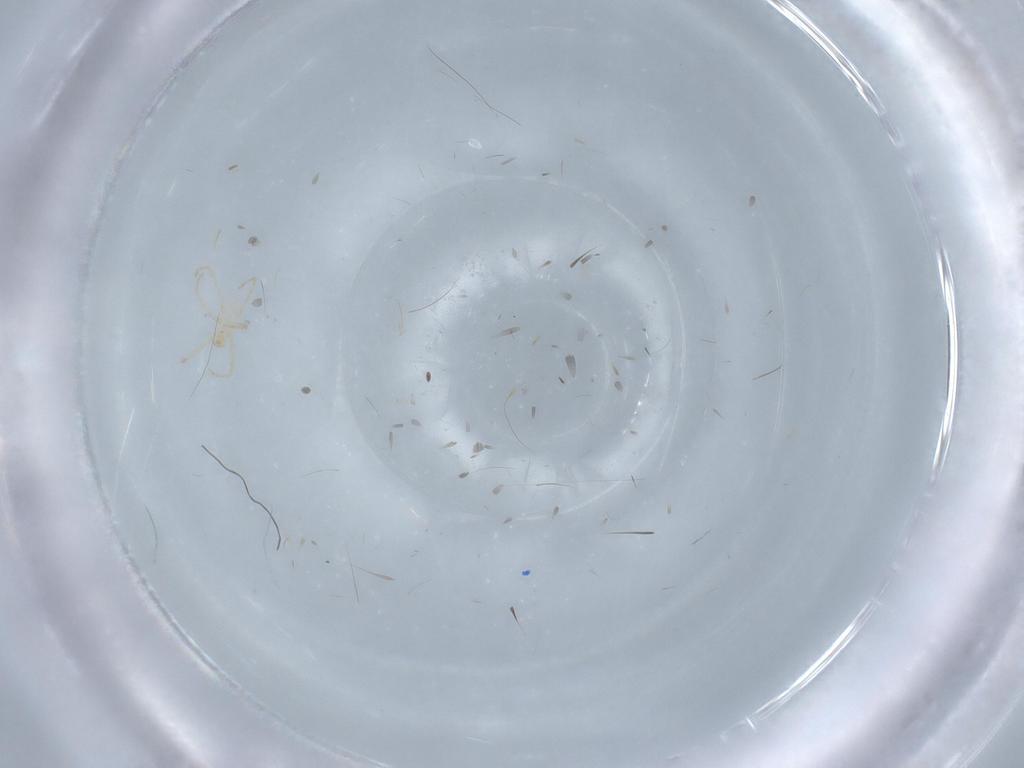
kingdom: Animalia
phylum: Arthropoda
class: Arachnida
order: Trombidiformes
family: Erythraeidae
